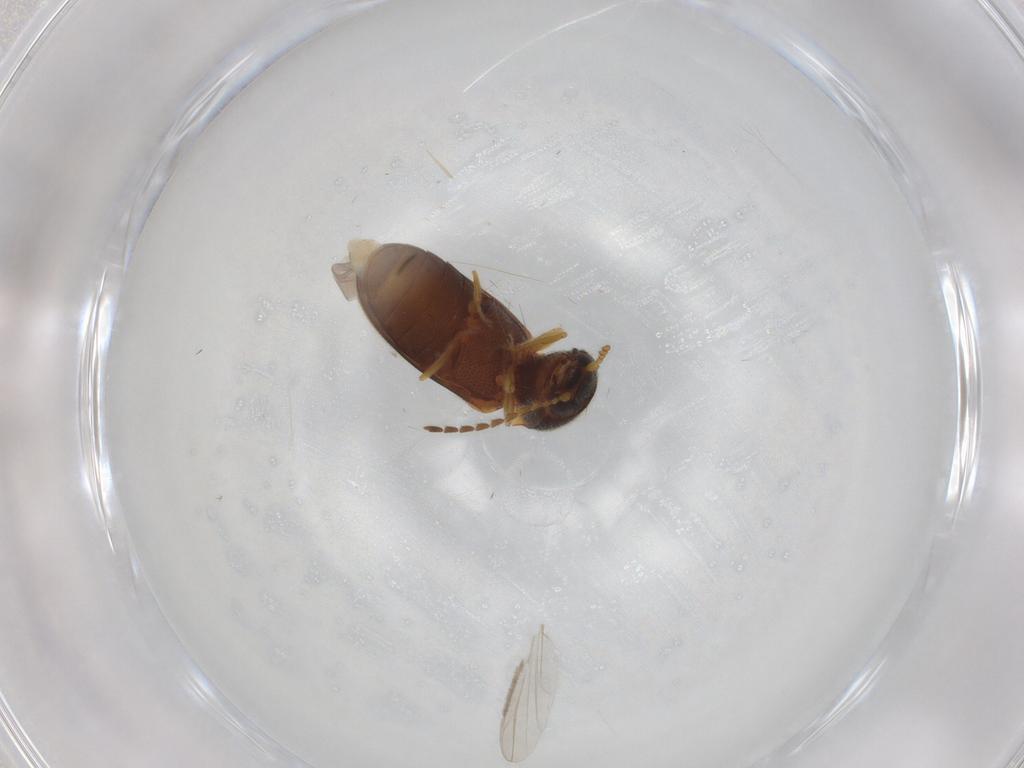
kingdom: Animalia
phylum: Arthropoda
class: Insecta
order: Coleoptera
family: Elateridae
